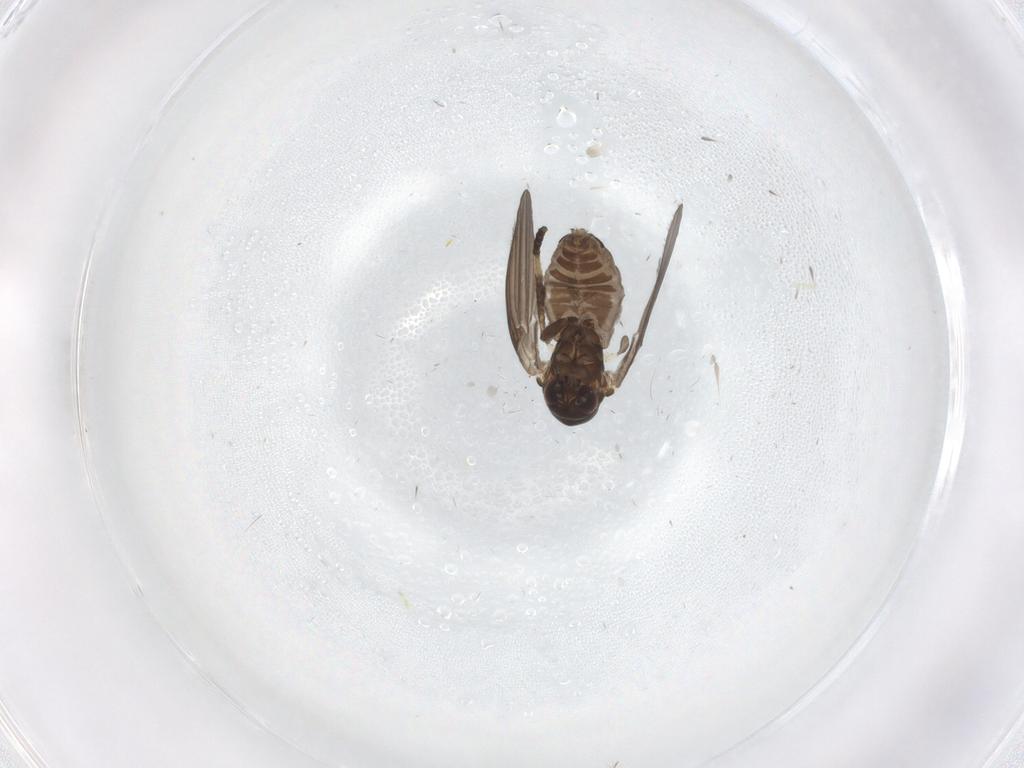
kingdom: Animalia
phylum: Arthropoda
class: Insecta
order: Diptera
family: Psychodidae
